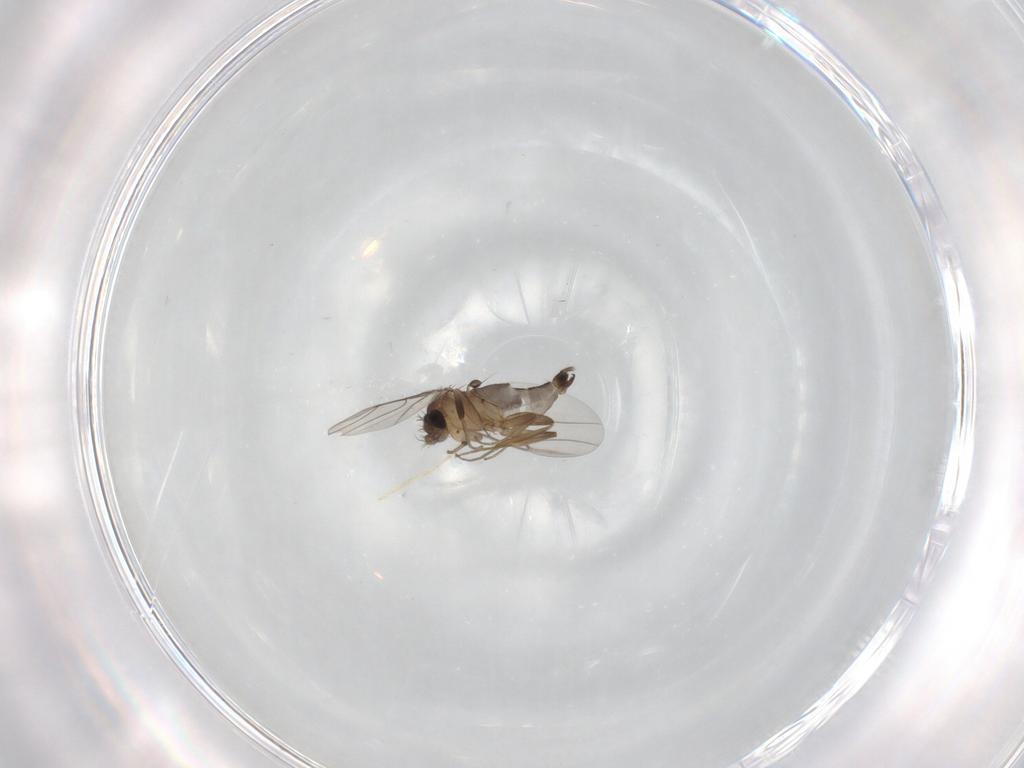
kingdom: Animalia
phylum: Arthropoda
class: Insecta
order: Diptera
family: Phoridae
